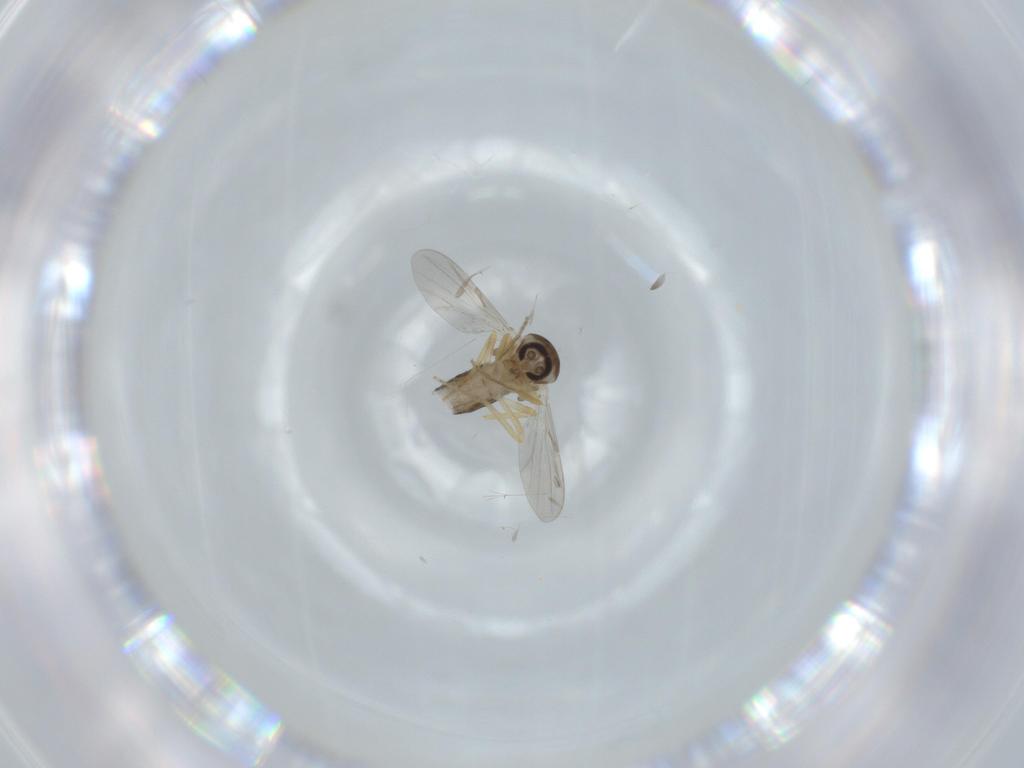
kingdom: Animalia
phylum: Arthropoda
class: Insecta
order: Diptera
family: Sphaeroceridae
